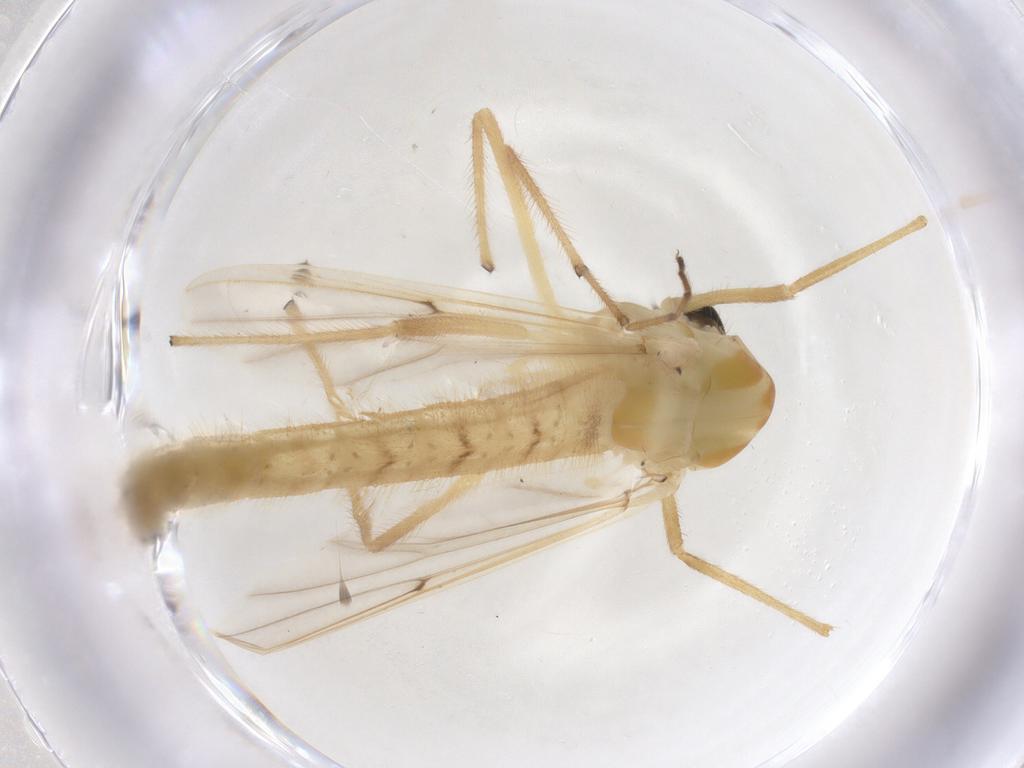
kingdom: Animalia
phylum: Arthropoda
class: Insecta
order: Diptera
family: Chironomidae
